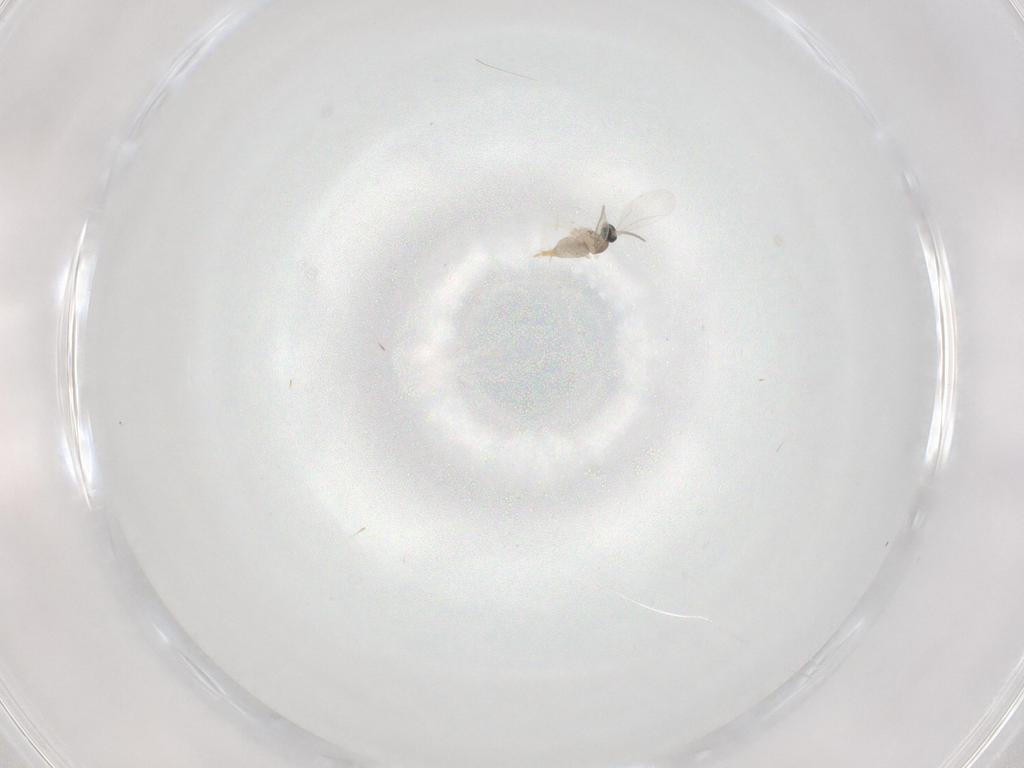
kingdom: Animalia
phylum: Arthropoda
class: Insecta
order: Diptera
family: Cecidomyiidae
